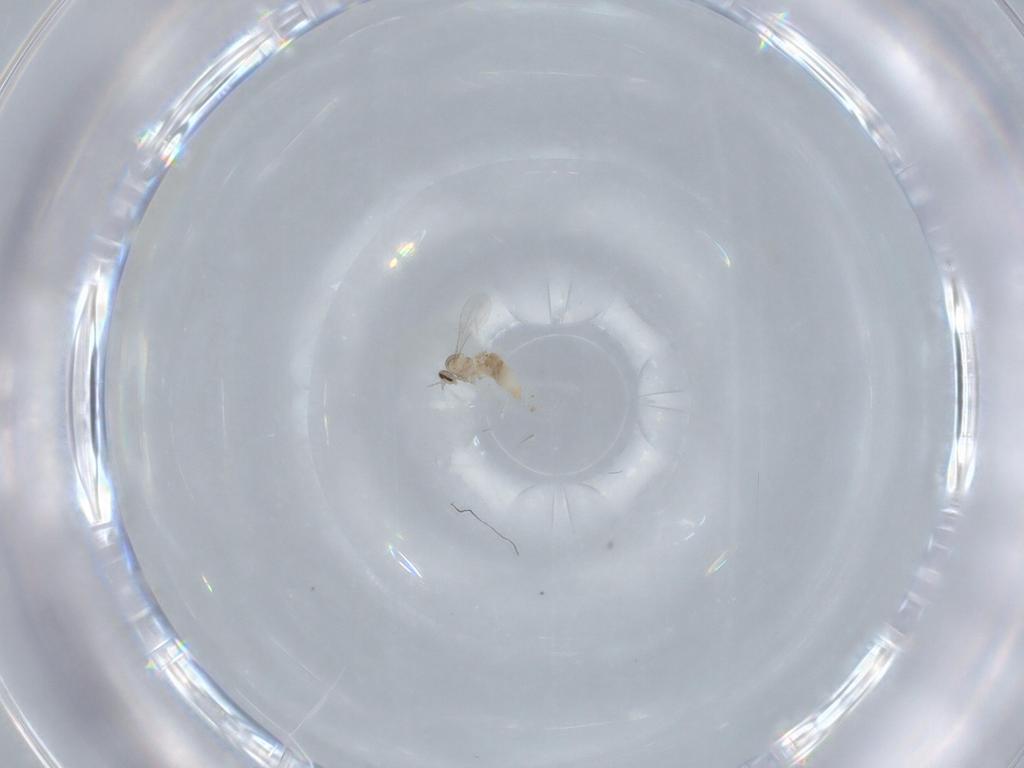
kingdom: Animalia
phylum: Arthropoda
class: Insecta
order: Diptera
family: Cecidomyiidae
